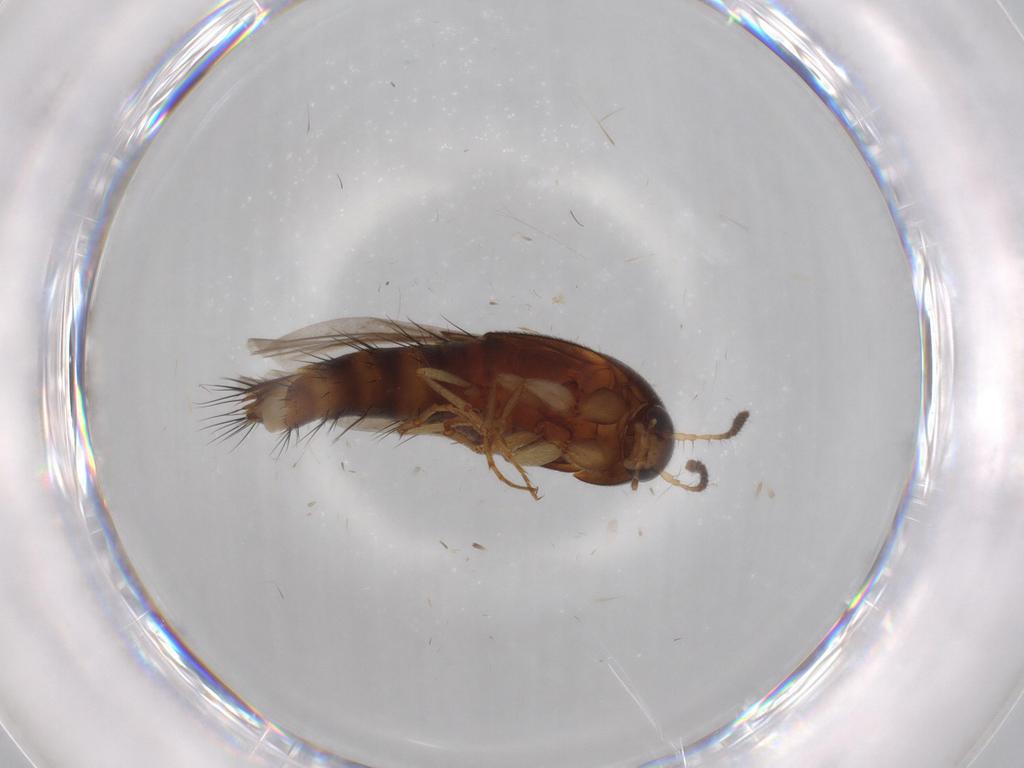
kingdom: Animalia
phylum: Arthropoda
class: Insecta
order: Coleoptera
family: Staphylinidae
